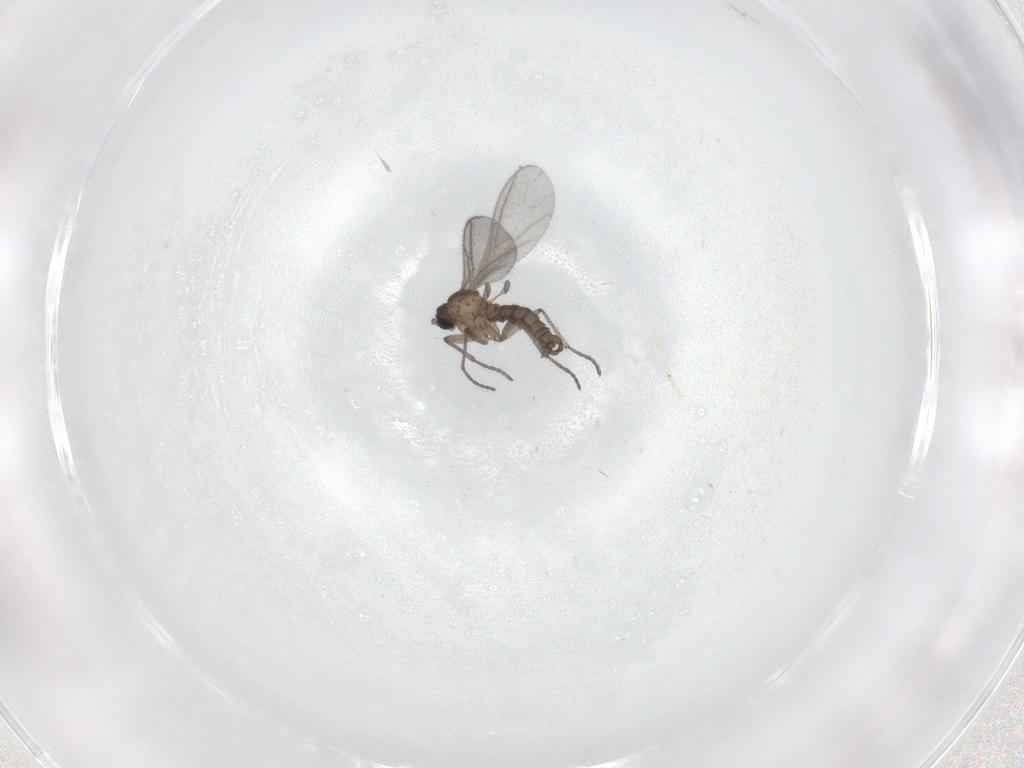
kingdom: Animalia
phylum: Arthropoda
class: Insecta
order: Diptera
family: Sciaridae
